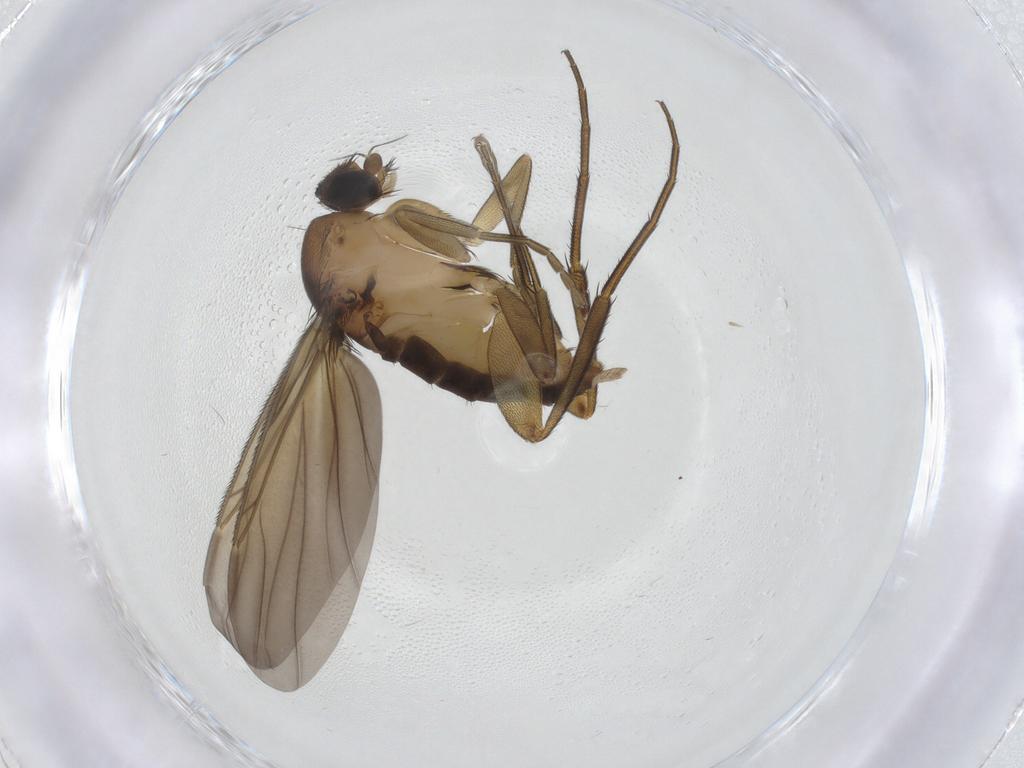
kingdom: Animalia
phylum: Arthropoda
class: Insecta
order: Diptera
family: Phoridae
